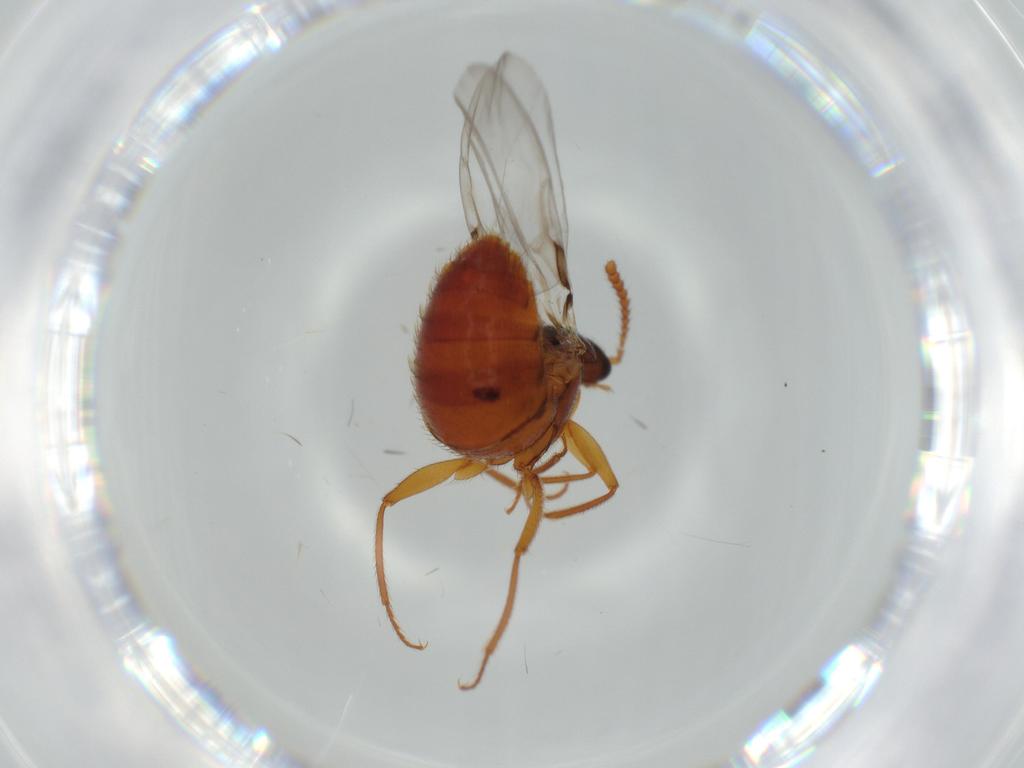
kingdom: Animalia
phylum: Arthropoda
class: Insecta
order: Coleoptera
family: Staphylinidae
